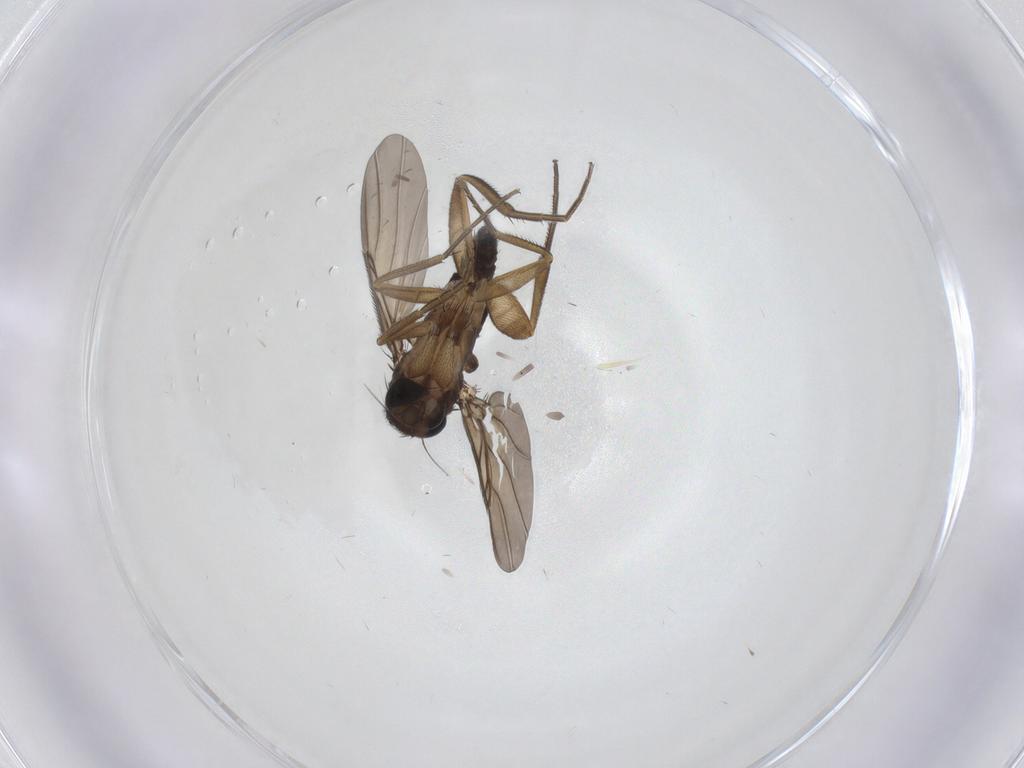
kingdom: Animalia
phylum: Arthropoda
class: Insecta
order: Diptera
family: Phoridae
